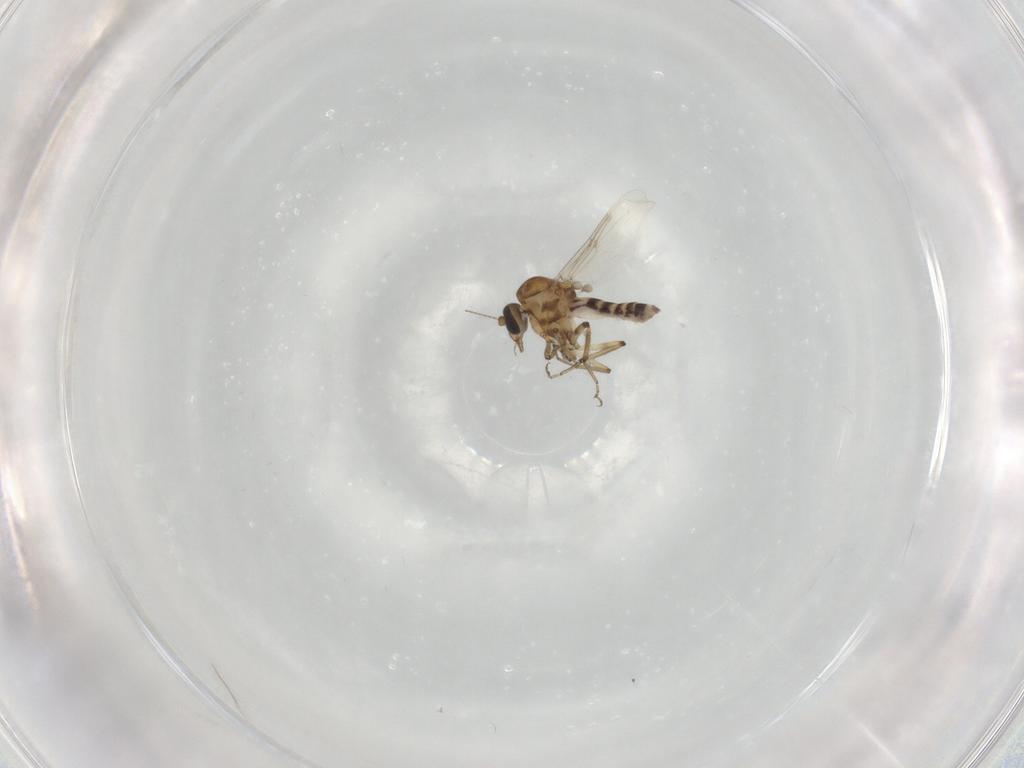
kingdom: Animalia
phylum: Arthropoda
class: Insecta
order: Diptera
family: Ceratopogonidae
